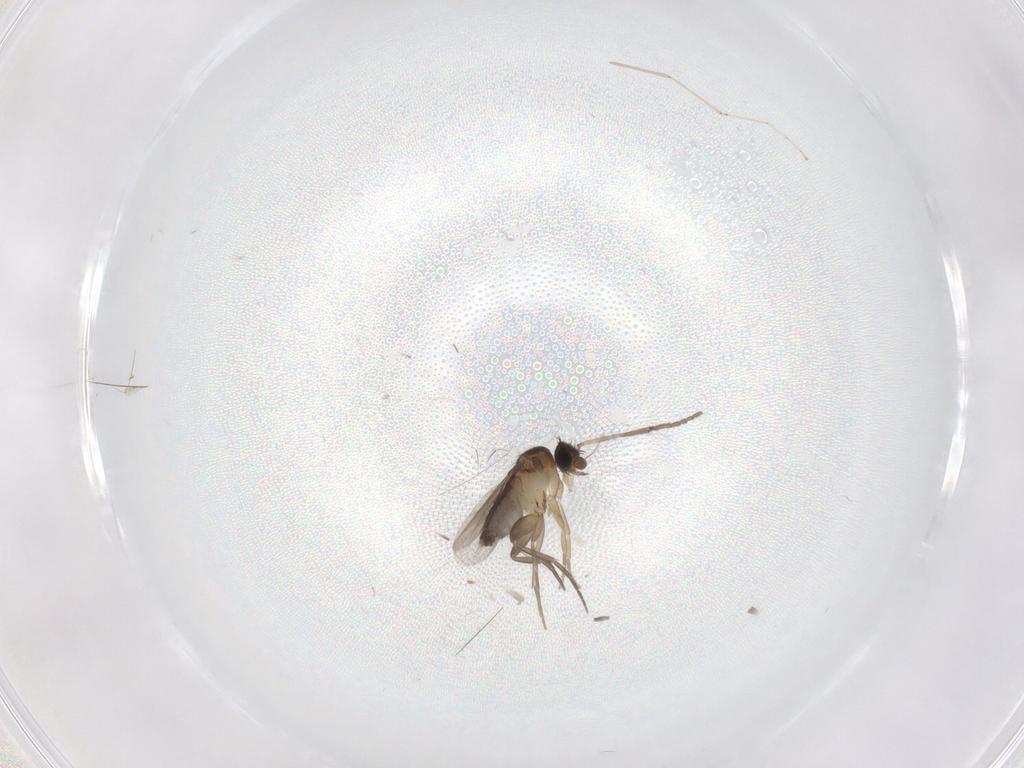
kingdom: Animalia
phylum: Arthropoda
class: Insecta
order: Diptera
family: Phoridae
